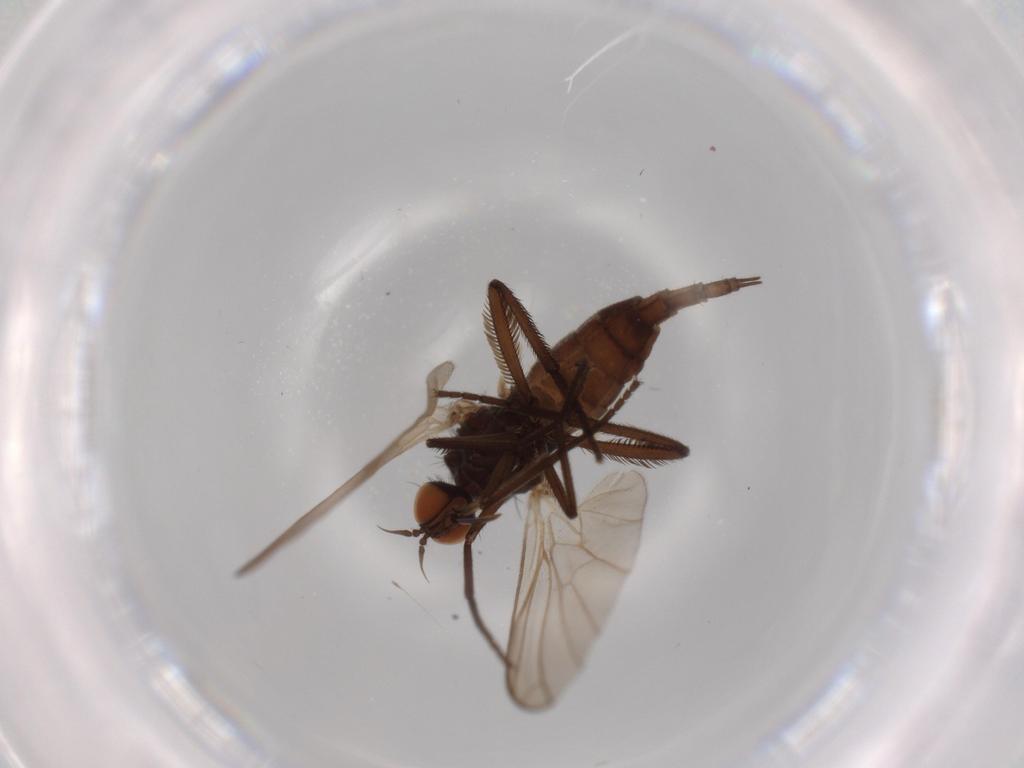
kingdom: Animalia
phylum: Arthropoda
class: Insecta
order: Diptera
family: Empididae
